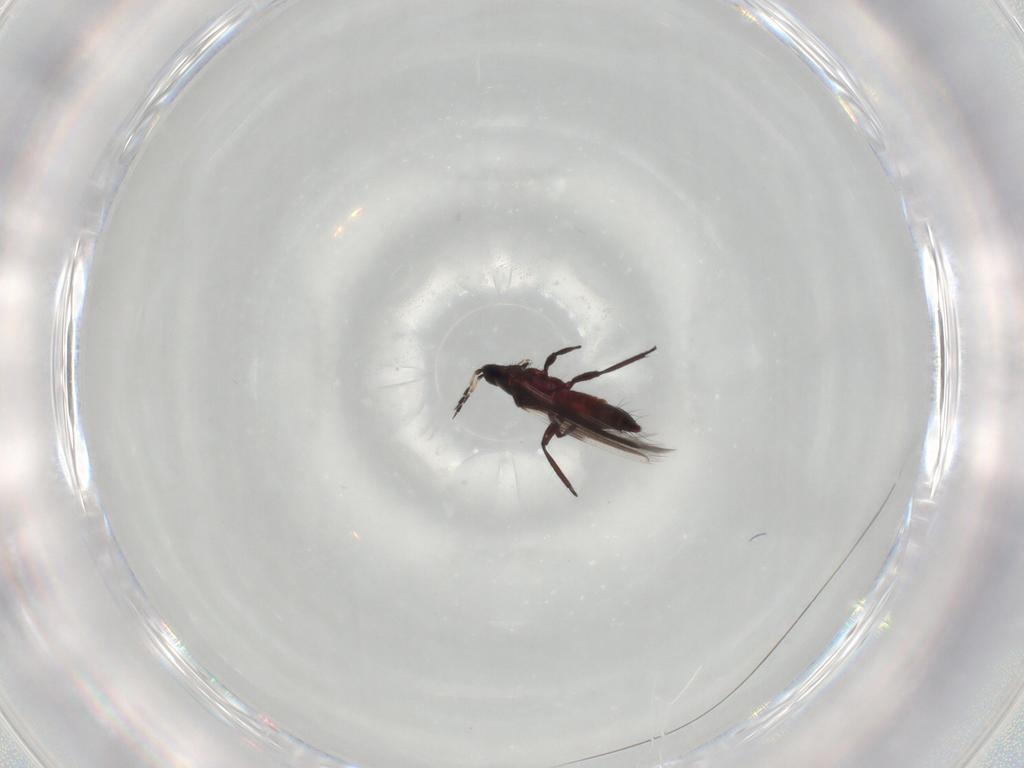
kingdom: Animalia
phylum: Arthropoda
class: Insecta
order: Thysanoptera
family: Aeolothripidae
